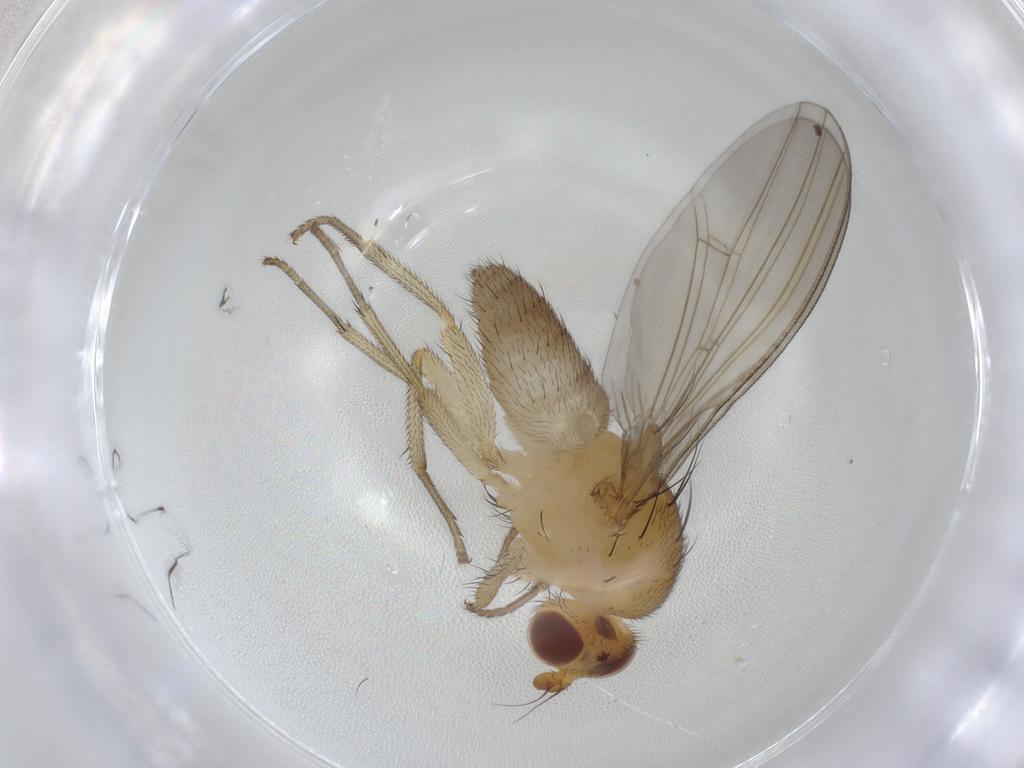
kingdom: Animalia
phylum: Arthropoda
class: Insecta
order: Diptera
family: Lauxaniidae
